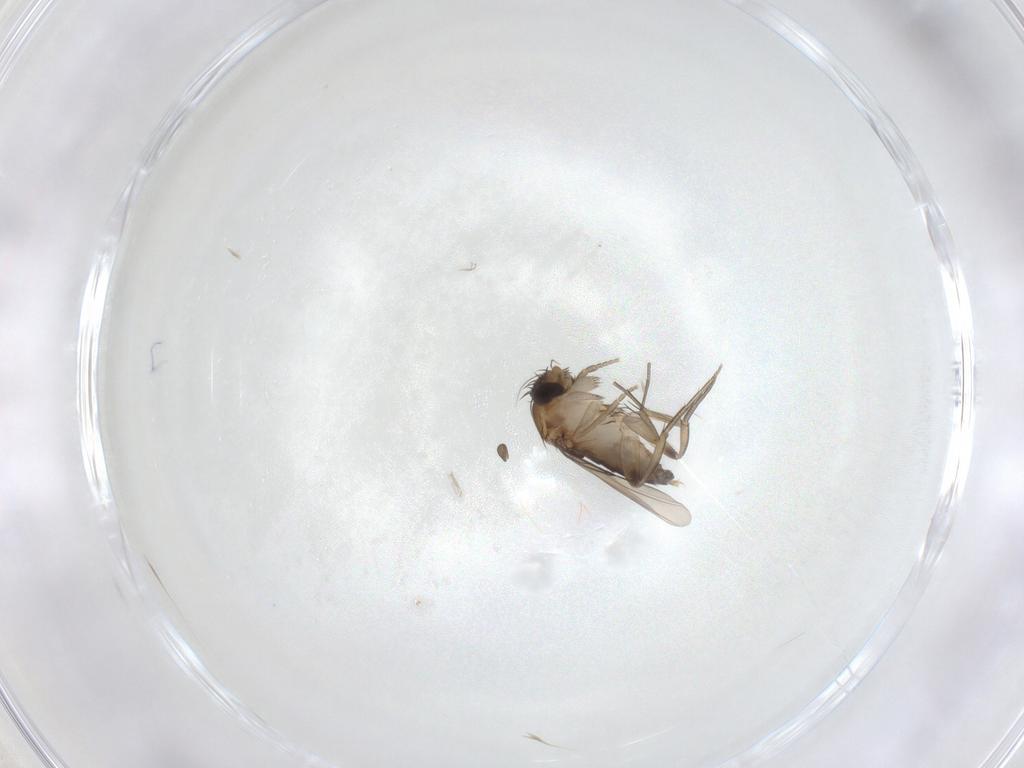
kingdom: Animalia
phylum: Arthropoda
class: Insecta
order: Diptera
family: Phoridae
